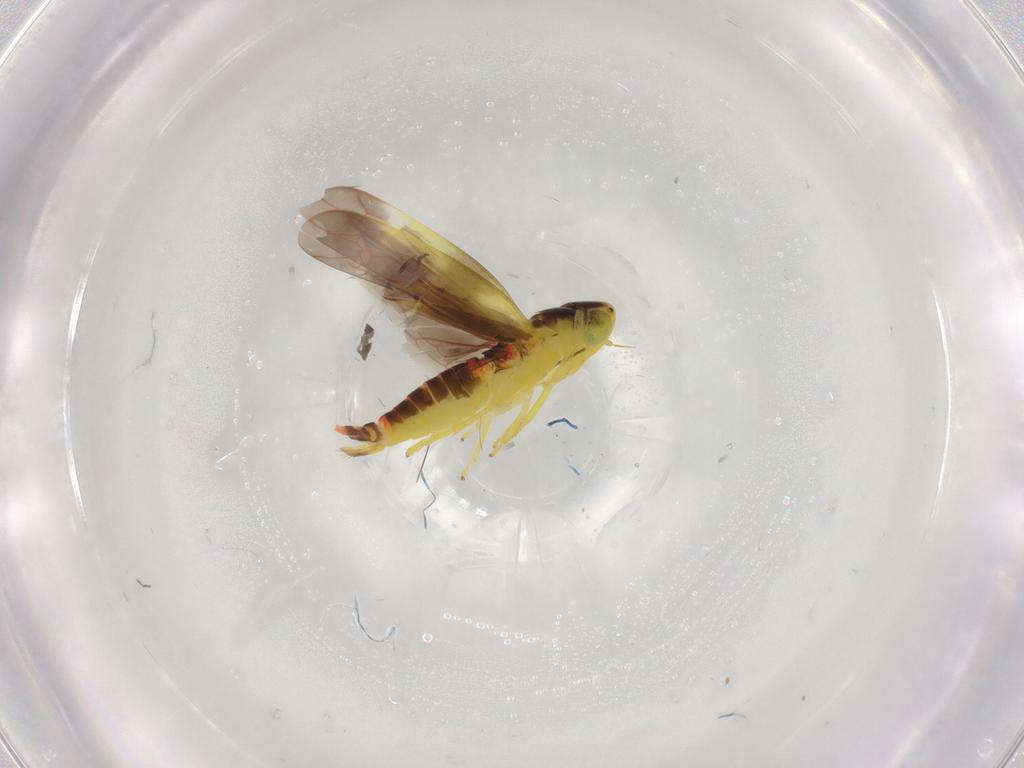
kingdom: Animalia
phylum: Arthropoda
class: Insecta
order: Hemiptera
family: Cicadellidae
